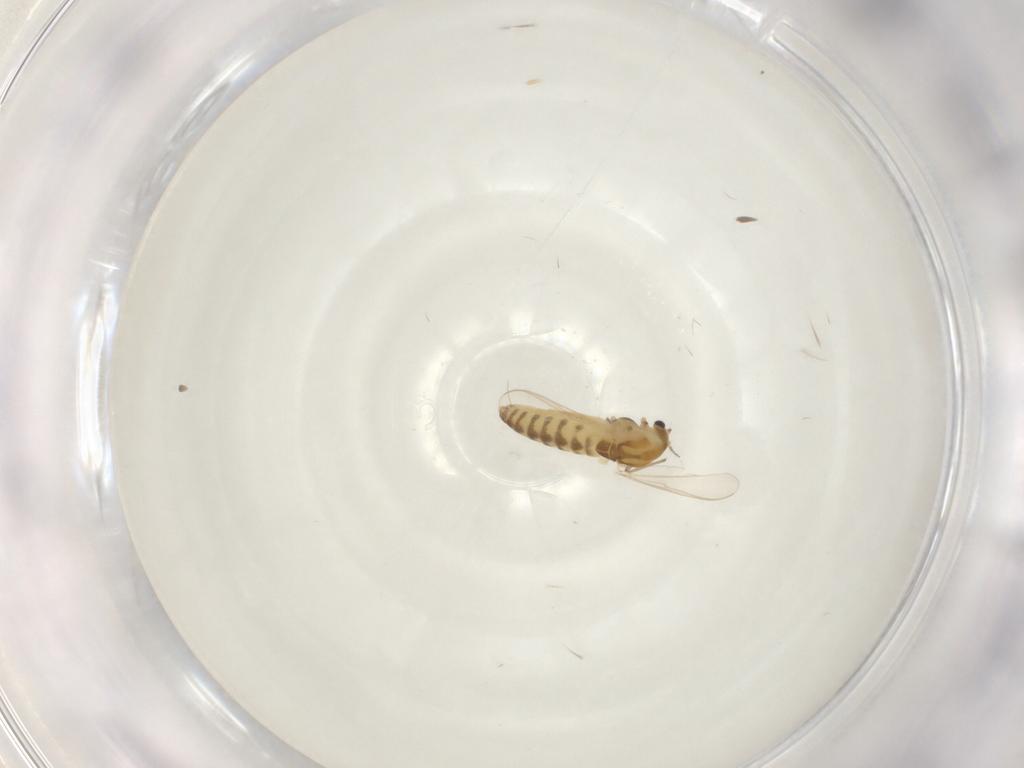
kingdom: Animalia
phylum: Arthropoda
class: Insecta
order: Diptera
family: Chironomidae
